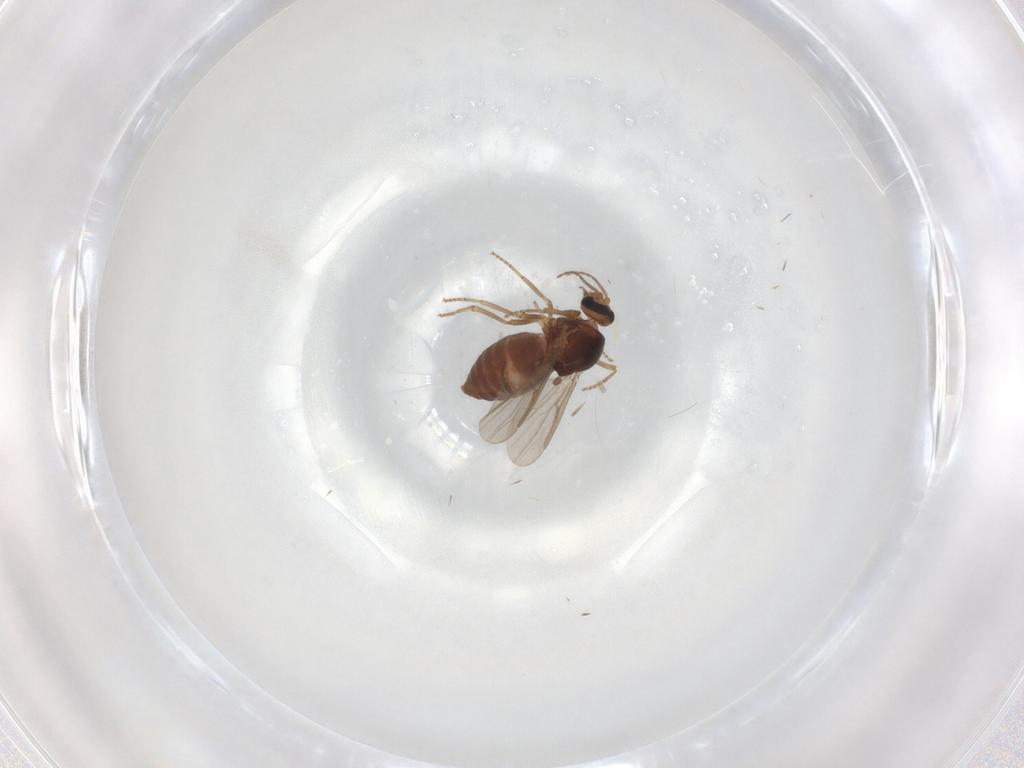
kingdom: Animalia
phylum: Arthropoda
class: Insecta
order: Diptera
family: Ceratopogonidae
